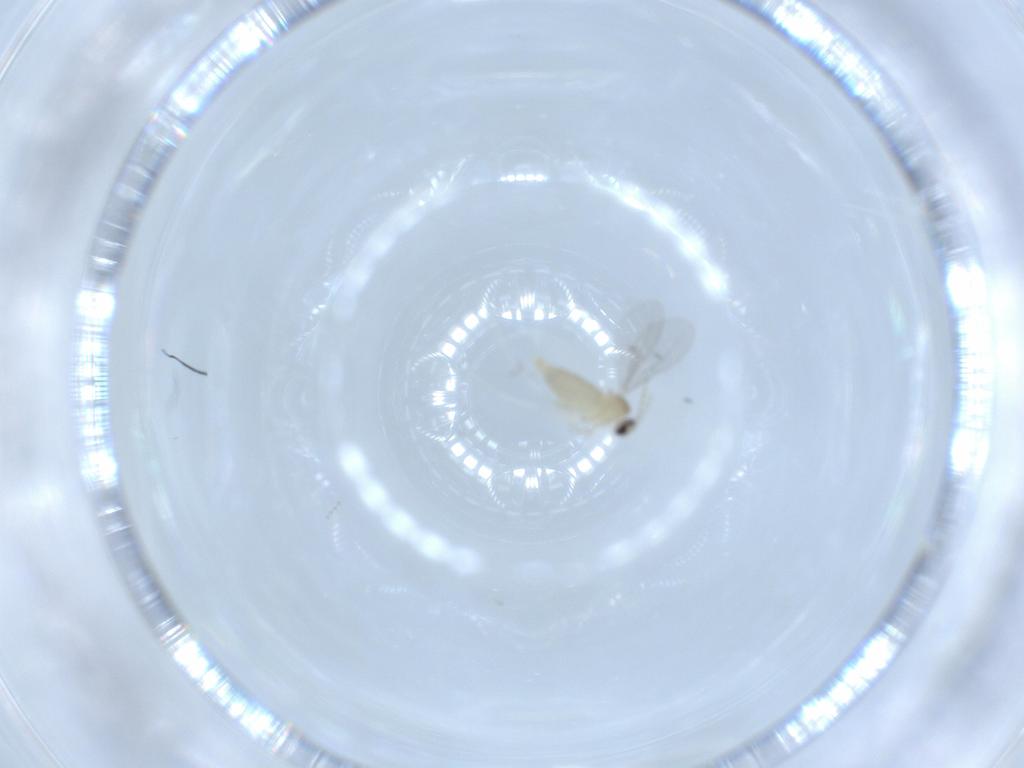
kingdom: Animalia
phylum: Arthropoda
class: Insecta
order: Diptera
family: Cecidomyiidae
